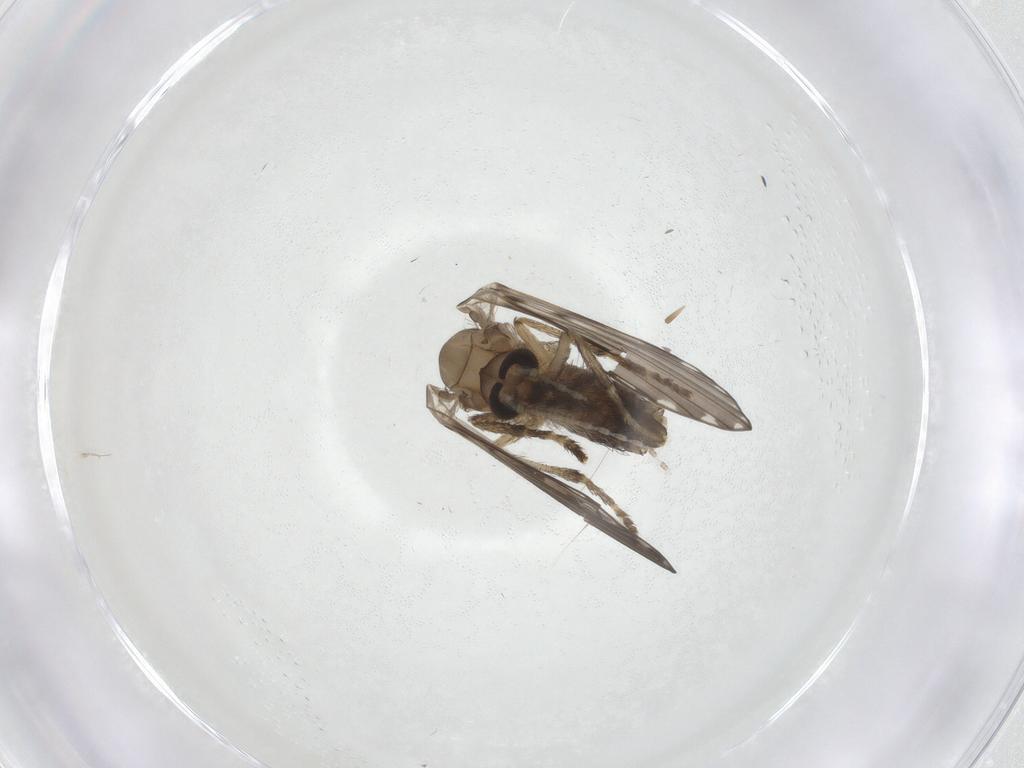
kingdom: Animalia
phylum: Arthropoda
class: Insecta
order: Diptera
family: Psychodidae
